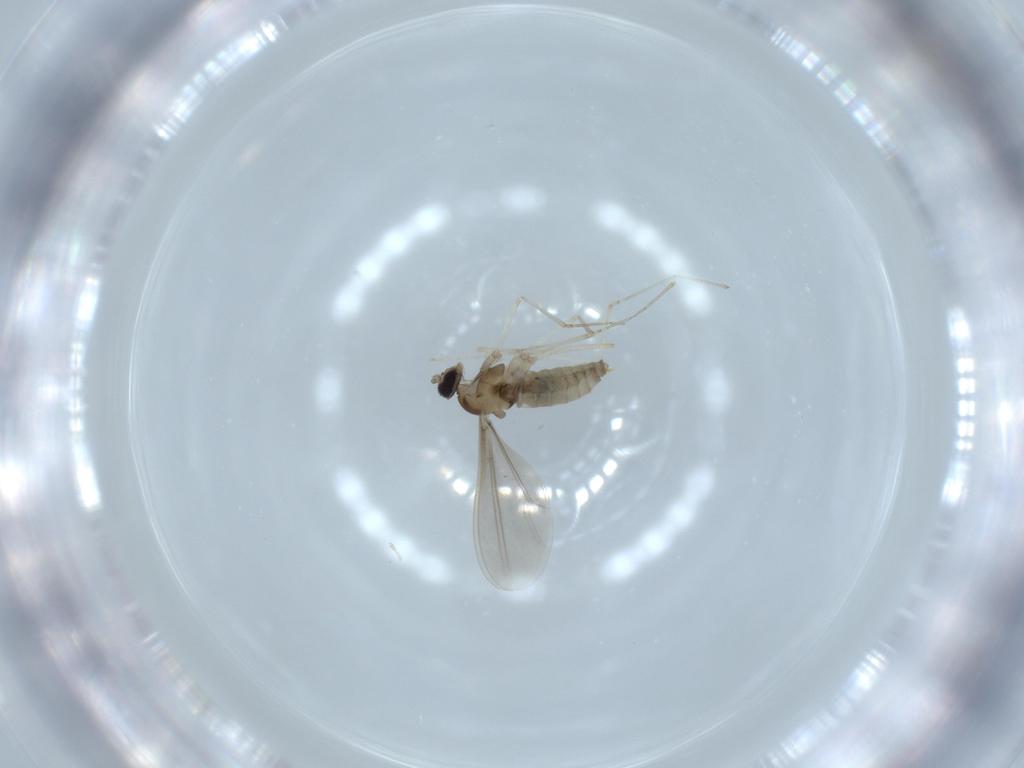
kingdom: Animalia
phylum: Arthropoda
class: Insecta
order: Diptera
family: Cecidomyiidae
